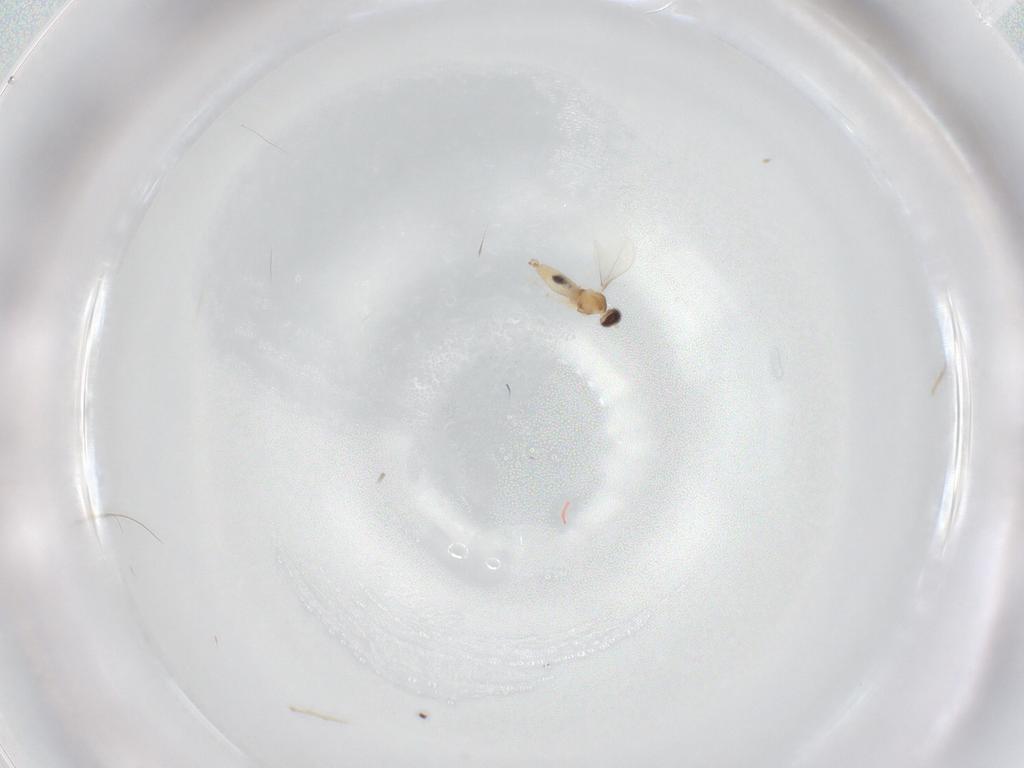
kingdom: Animalia
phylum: Arthropoda
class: Insecta
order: Diptera
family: Cecidomyiidae
